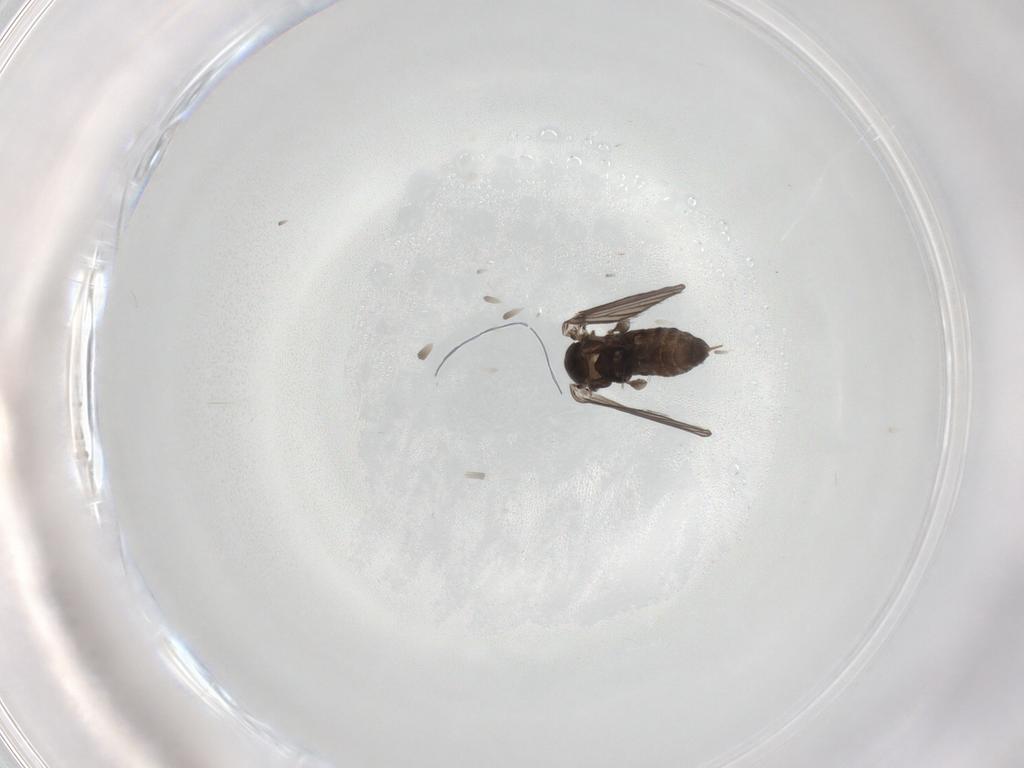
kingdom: Animalia
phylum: Arthropoda
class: Insecta
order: Diptera
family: Psychodidae
